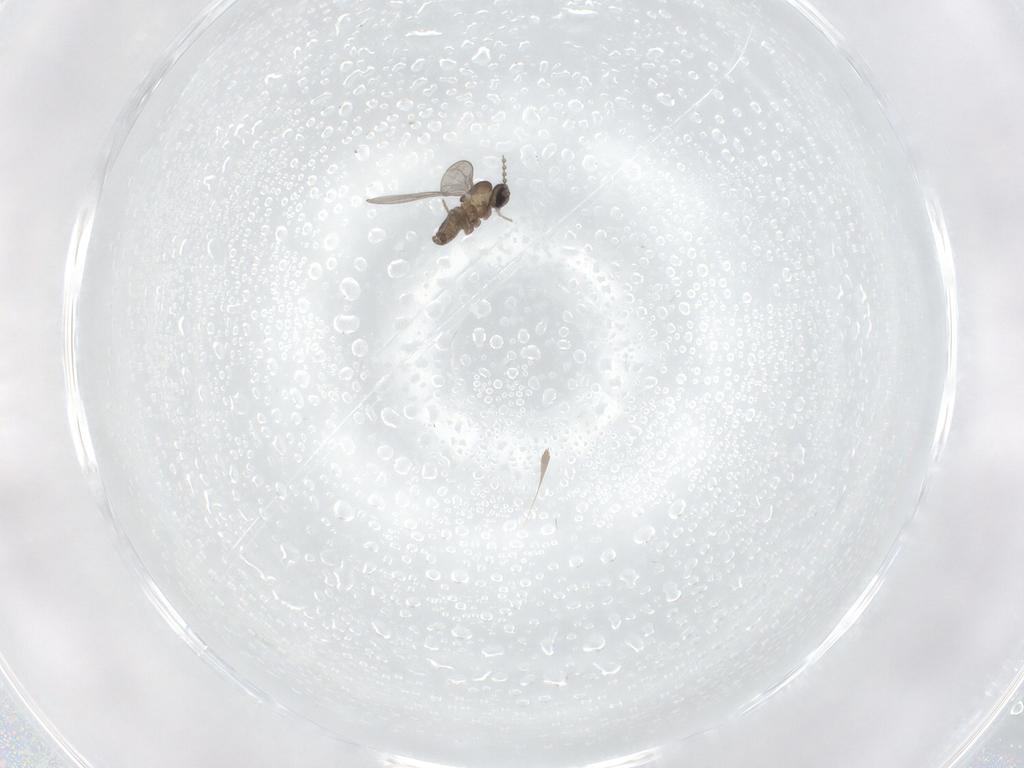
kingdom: Animalia
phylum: Arthropoda
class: Insecta
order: Diptera
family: Cecidomyiidae
